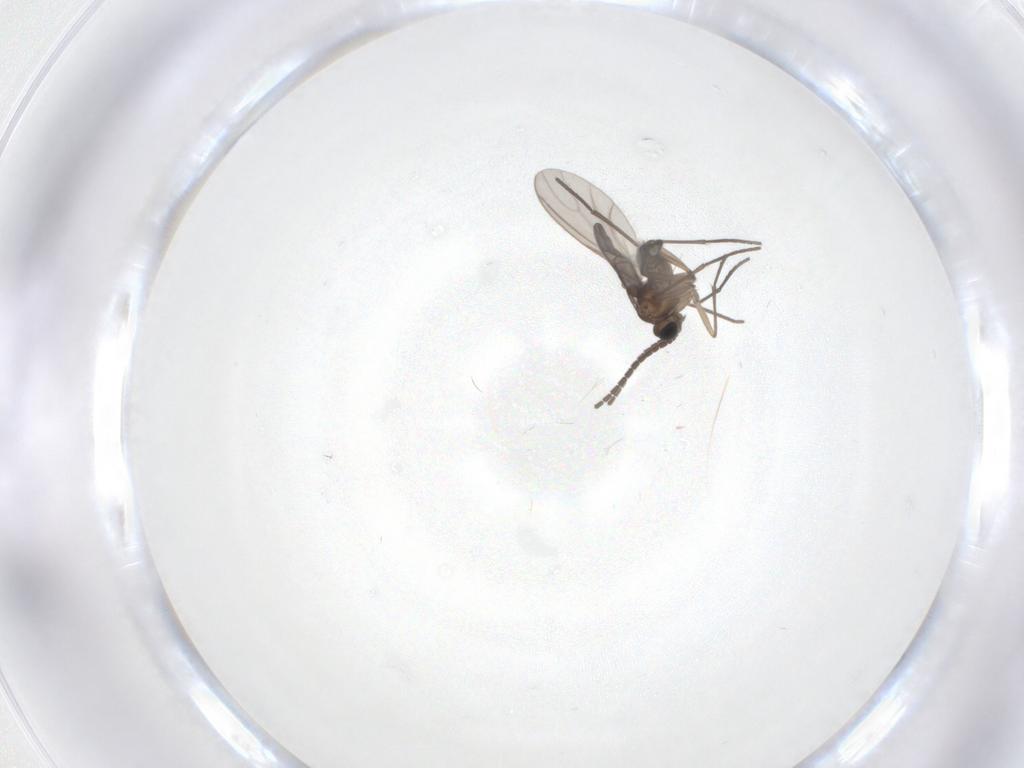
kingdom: Animalia
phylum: Arthropoda
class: Insecta
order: Diptera
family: Sciaridae
